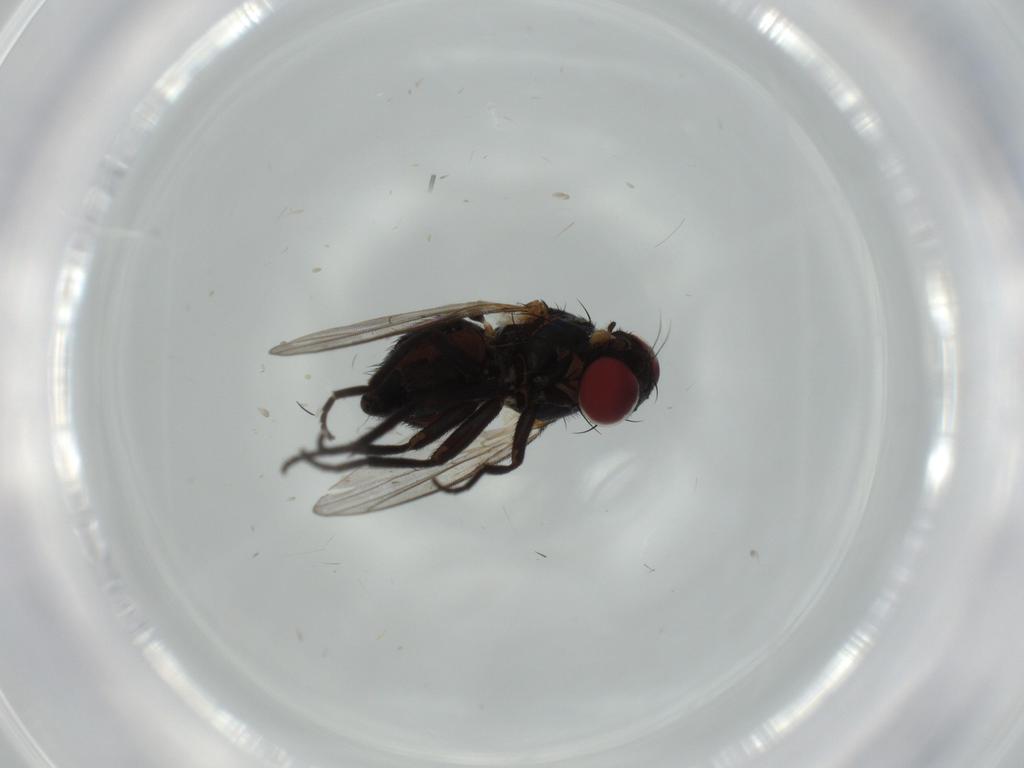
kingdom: Animalia
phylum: Arthropoda
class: Insecta
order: Diptera
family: Agromyzidae
